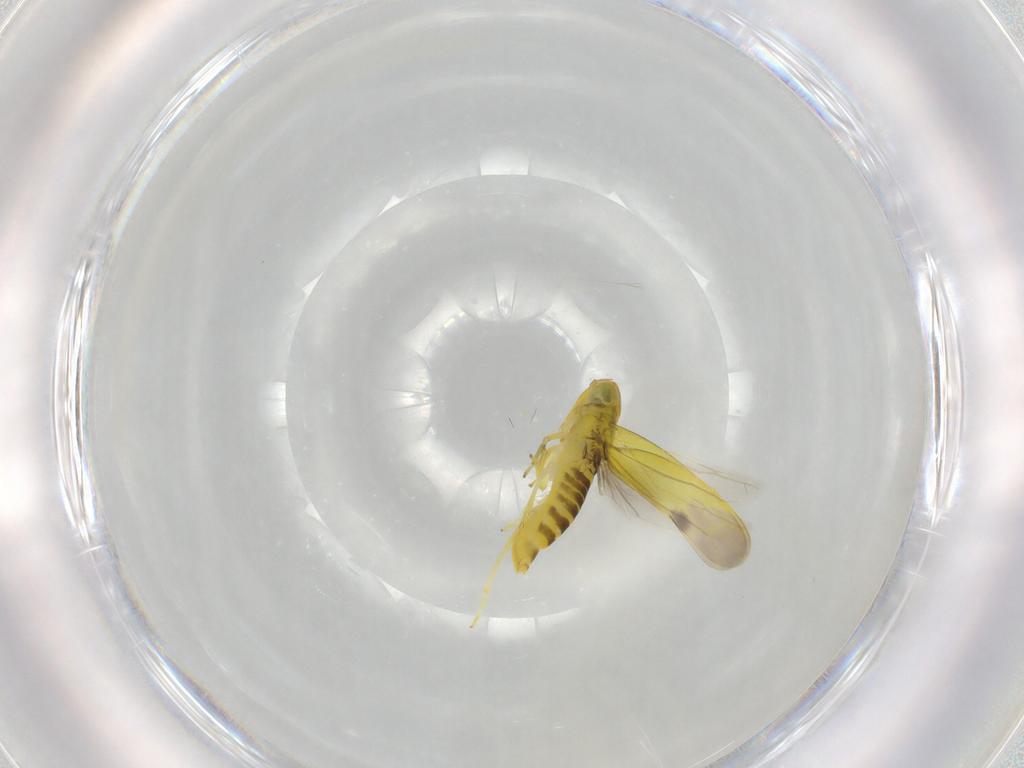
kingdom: Animalia
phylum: Arthropoda
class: Insecta
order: Hemiptera
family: Cicadellidae
